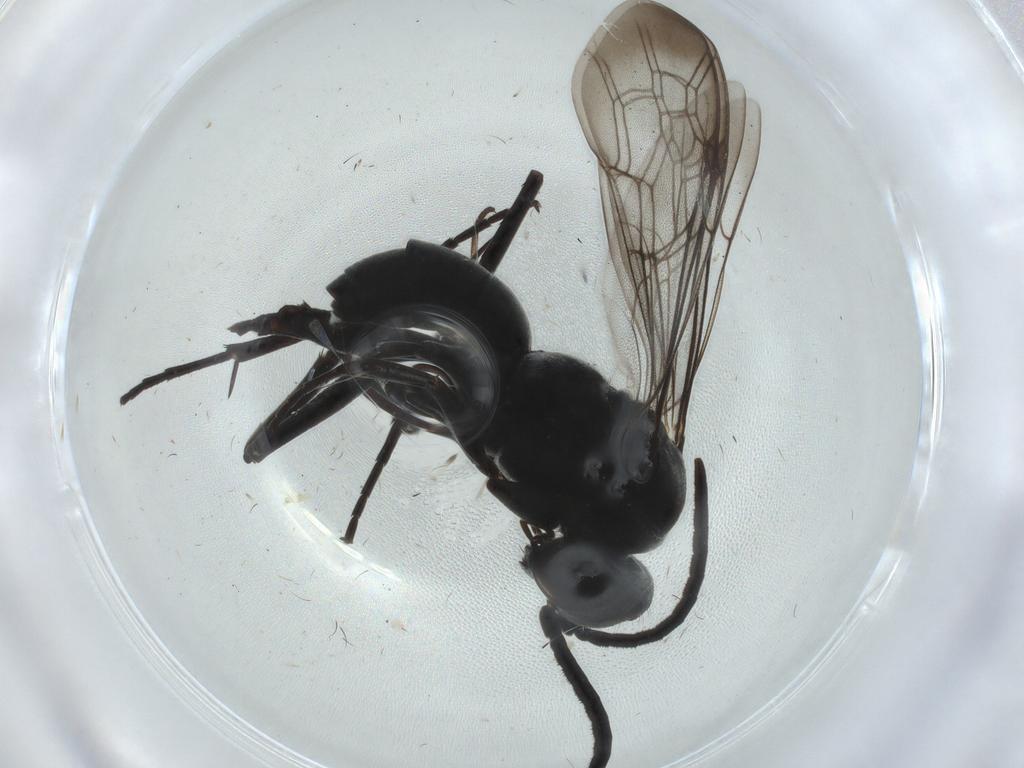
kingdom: Animalia
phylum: Arthropoda
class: Insecta
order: Hymenoptera
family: Pompilidae
